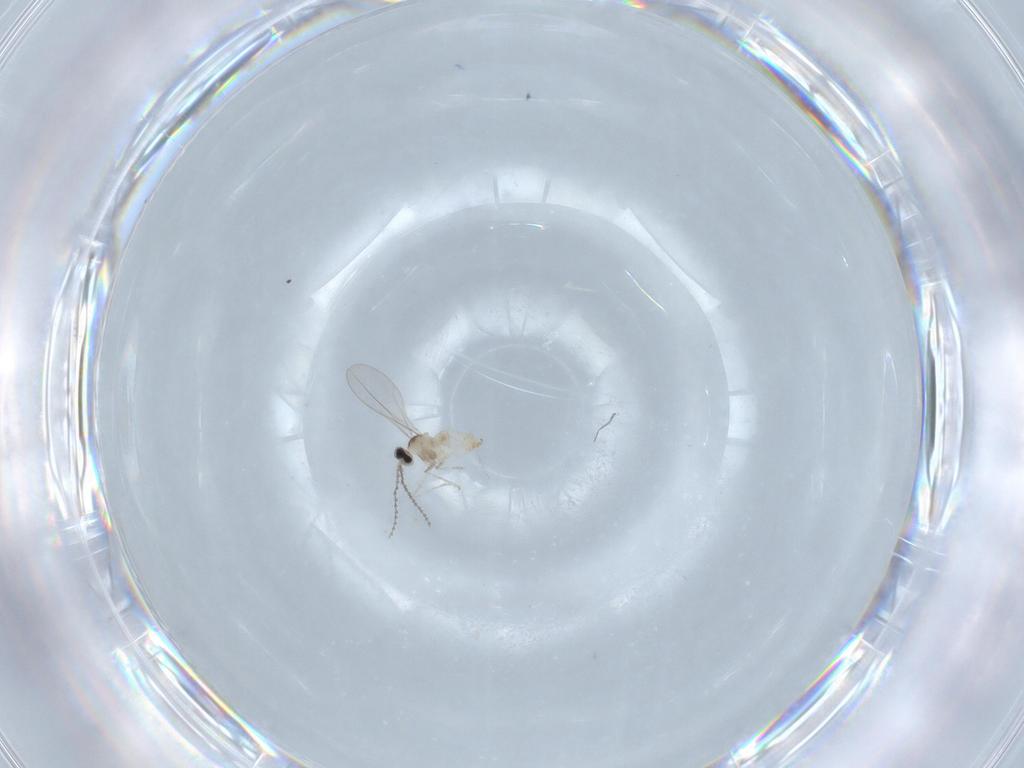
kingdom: Animalia
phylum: Arthropoda
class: Insecta
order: Diptera
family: Cecidomyiidae
